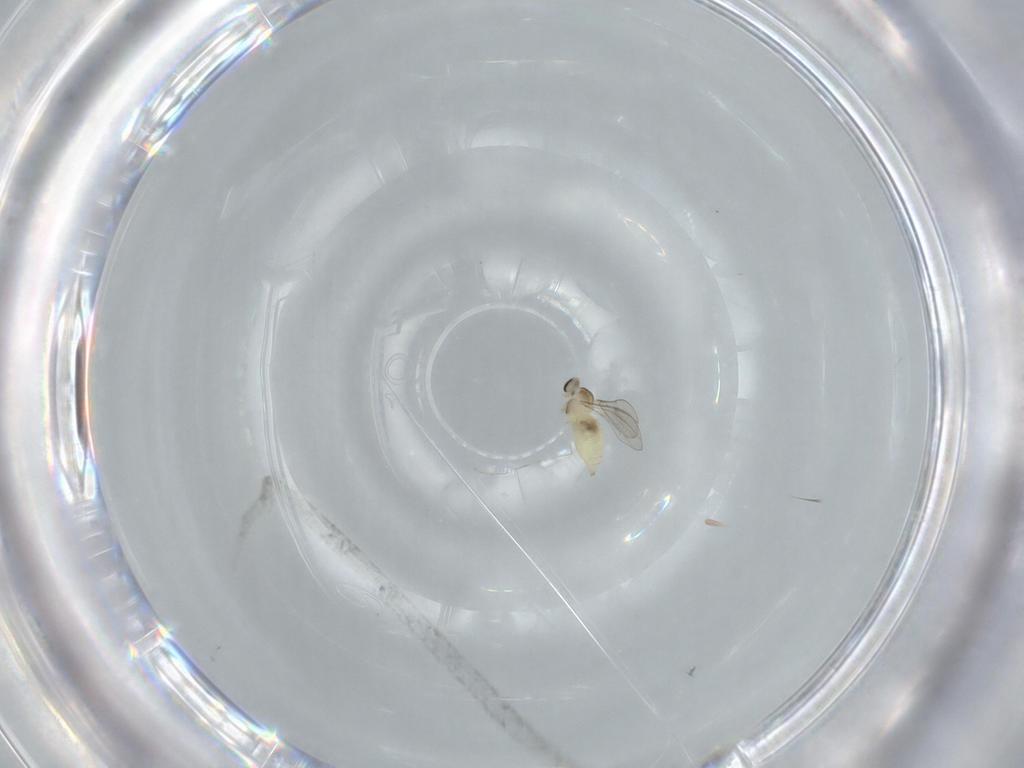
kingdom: Animalia
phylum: Arthropoda
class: Insecta
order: Diptera
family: Cecidomyiidae
